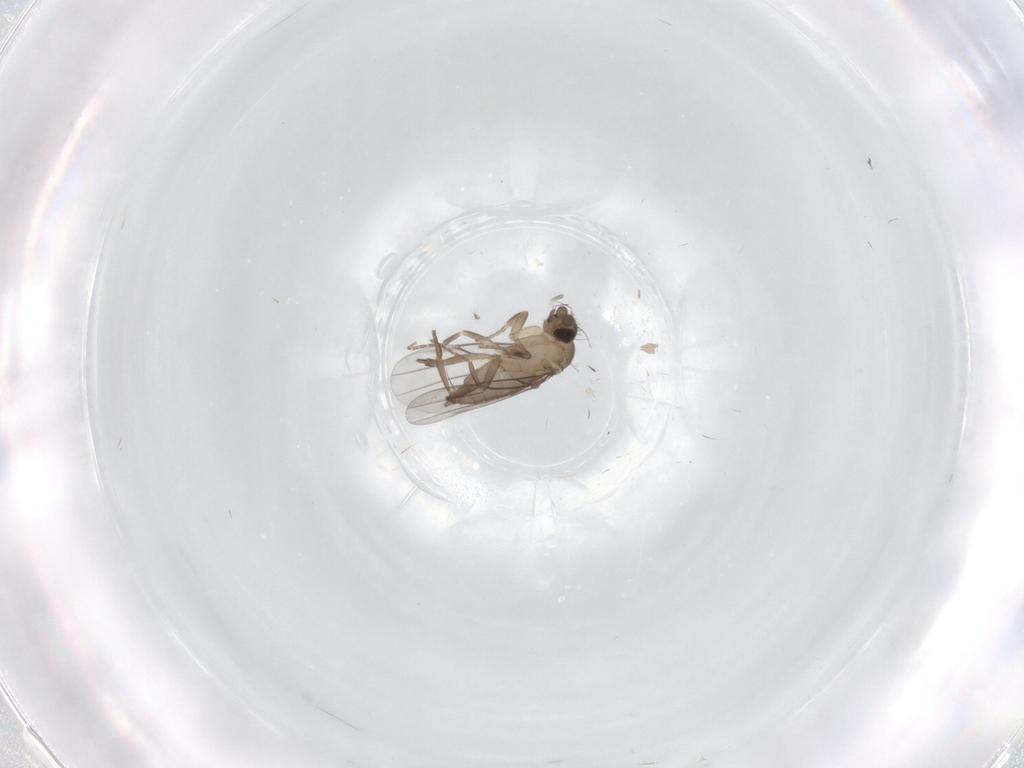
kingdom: Animalia
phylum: Arthropoda
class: Insecta
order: Diptera
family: Phoridae
